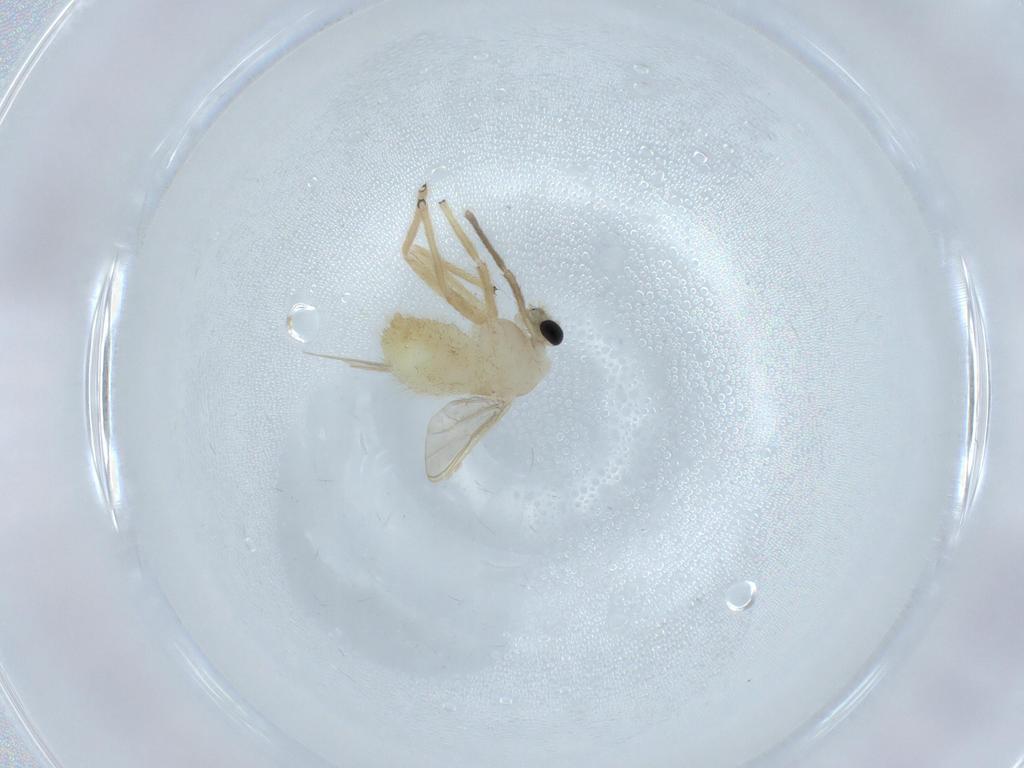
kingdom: Animalia
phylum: Arthropoda
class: Insecta
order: Diptera
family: Chironomidae
